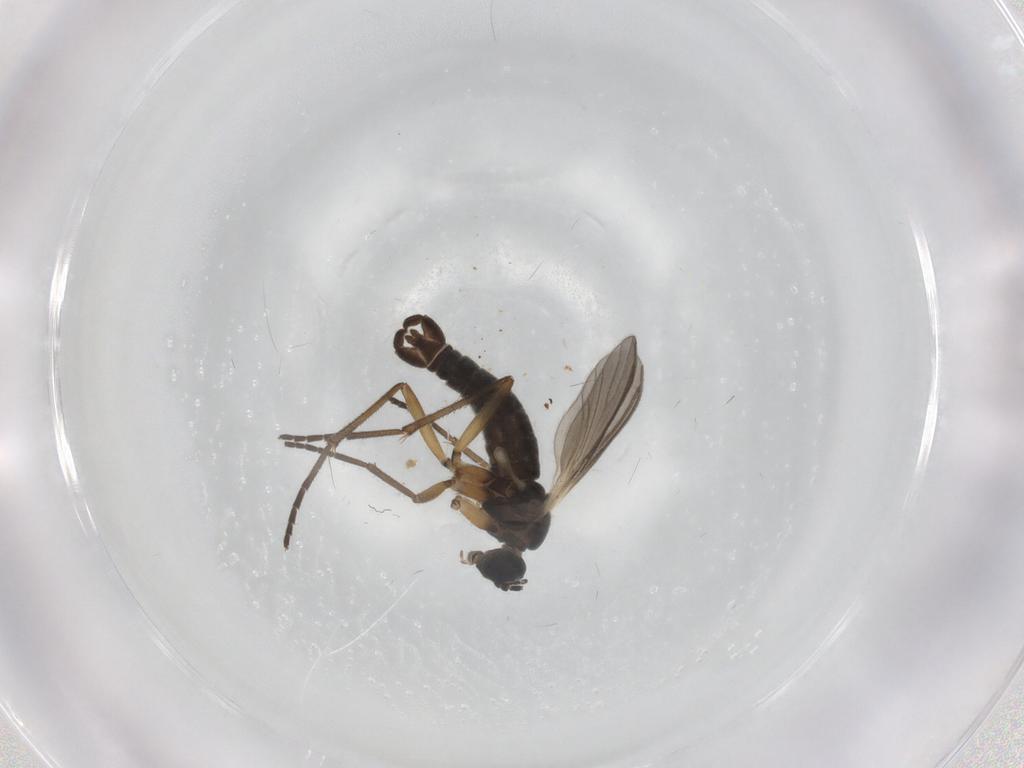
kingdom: Animalia
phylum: Arthropoda
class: Insecta
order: Diptera
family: Sciaridae
